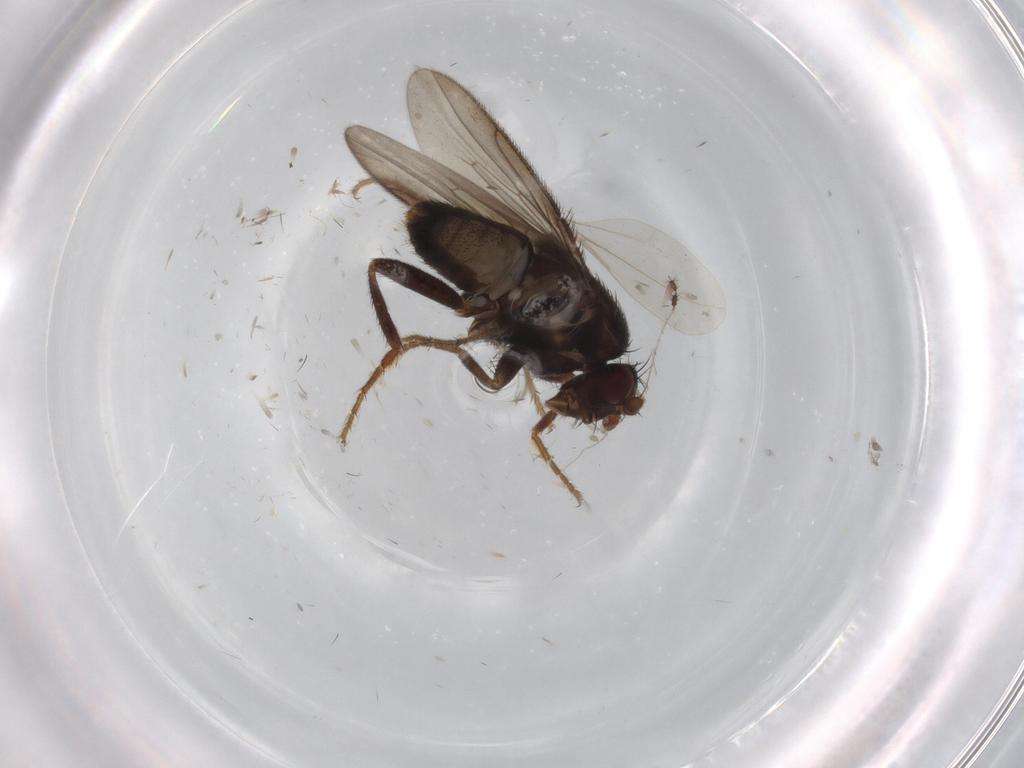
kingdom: Animalia
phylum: Arthropoda
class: Insecta
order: Diptera
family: Sphaeroceridae
